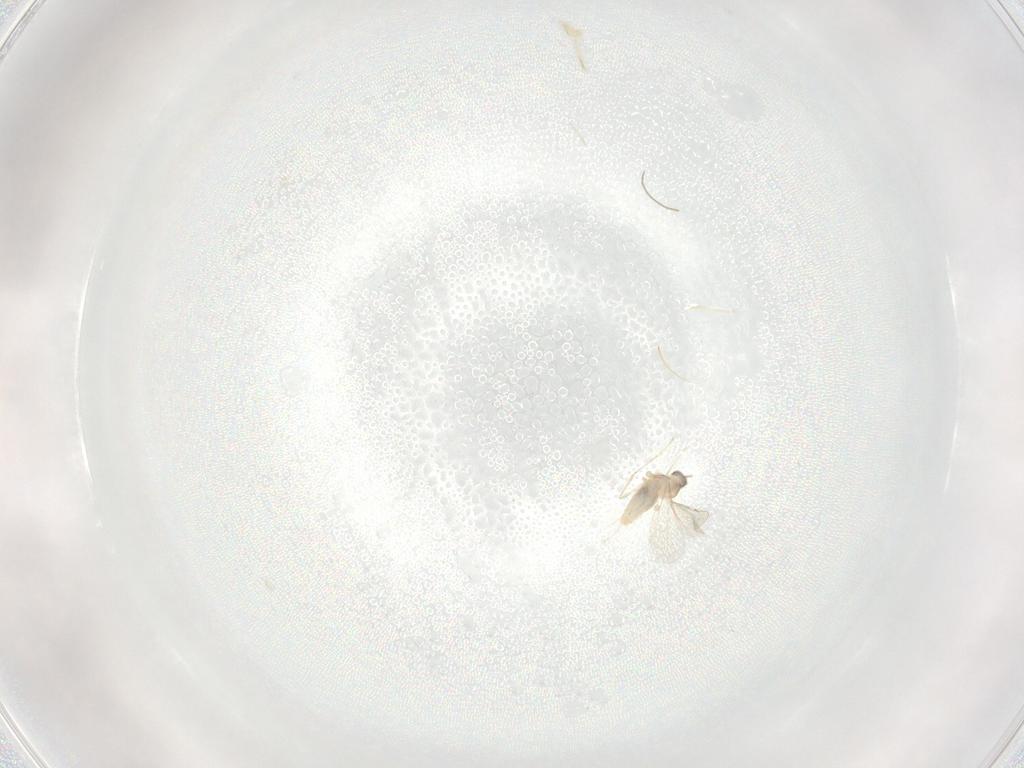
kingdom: Animalia
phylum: Arthropoda
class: Insecta
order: Diptera
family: Cecidomyiidae
